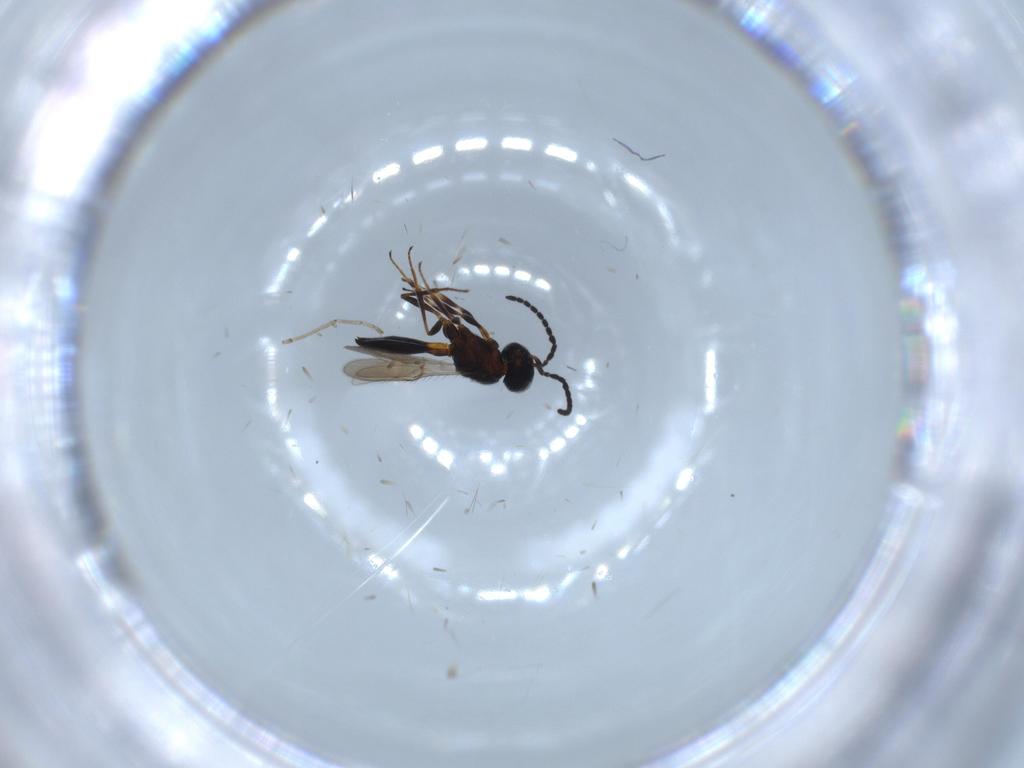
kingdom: Animalia
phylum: Arthropoda
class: Insecta
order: Hymenoptera
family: Scelionidae
